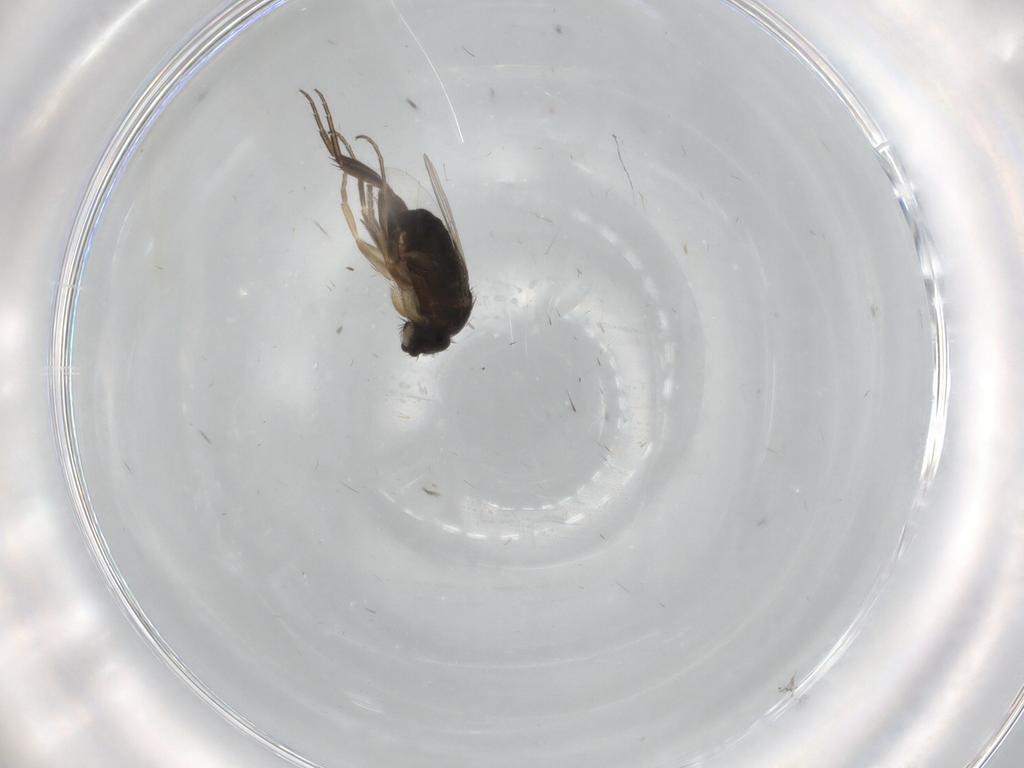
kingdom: Animalia
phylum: Arthropoda
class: Insecta
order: Diptera
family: Phoridae
